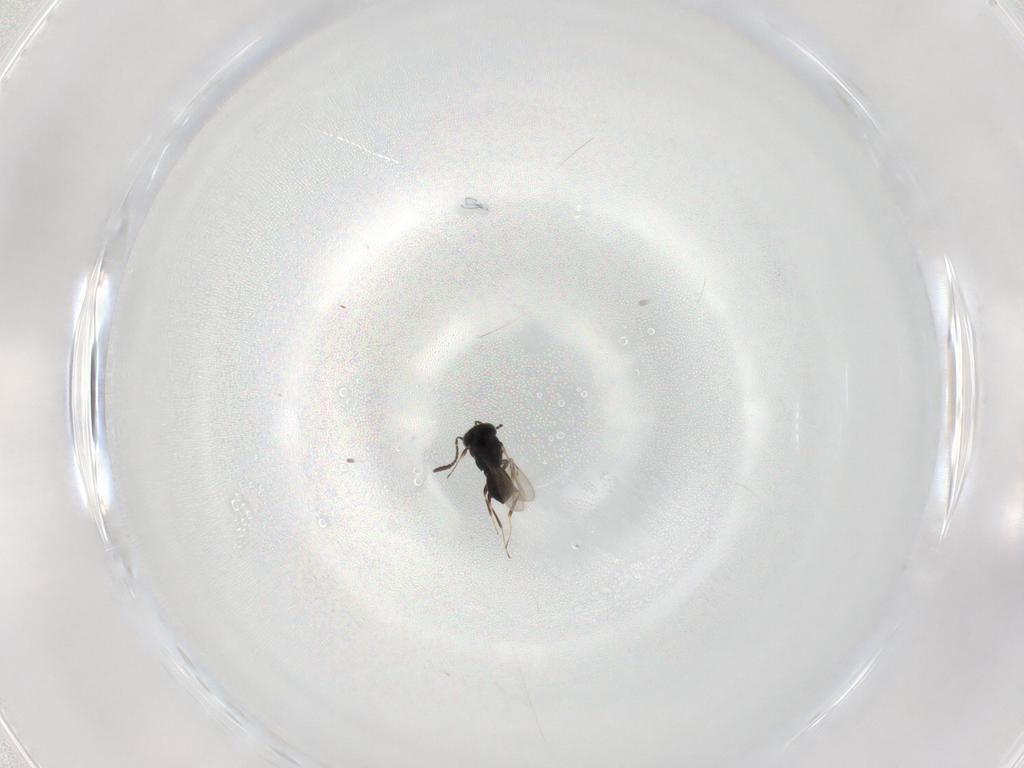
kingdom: Animalia
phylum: Arthropoda
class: Insecta
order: Hymenoptera
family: Scelionidae
